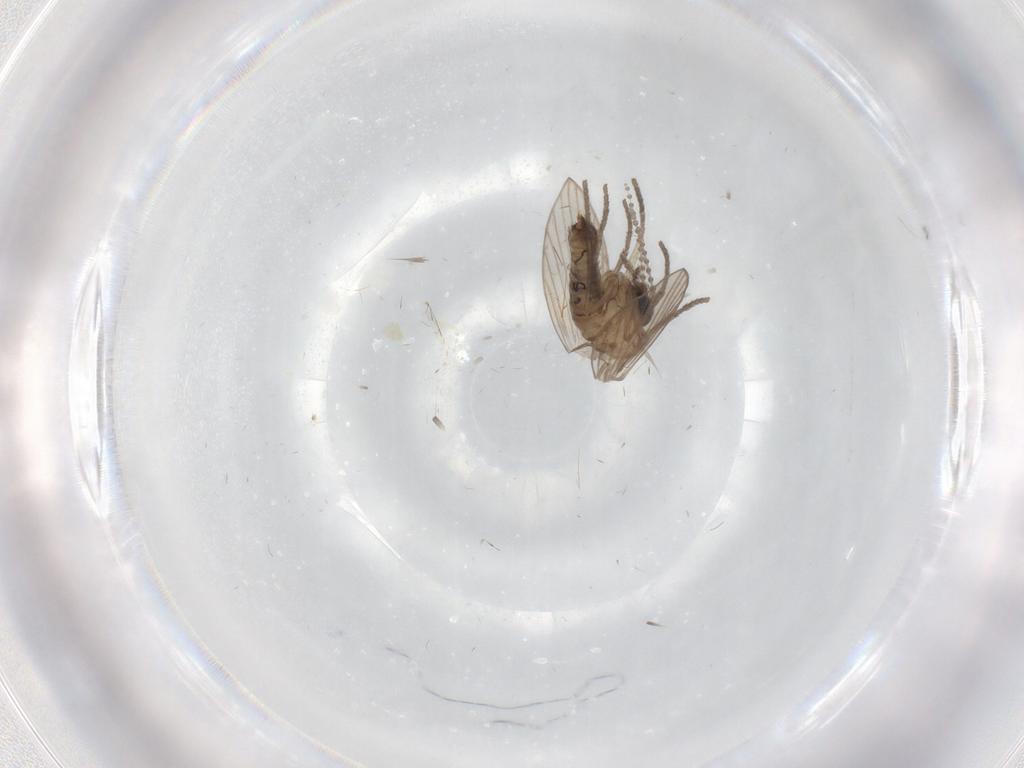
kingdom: Animalia
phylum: Arthropoda
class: Insecta
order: Diptera
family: Psychodidae
